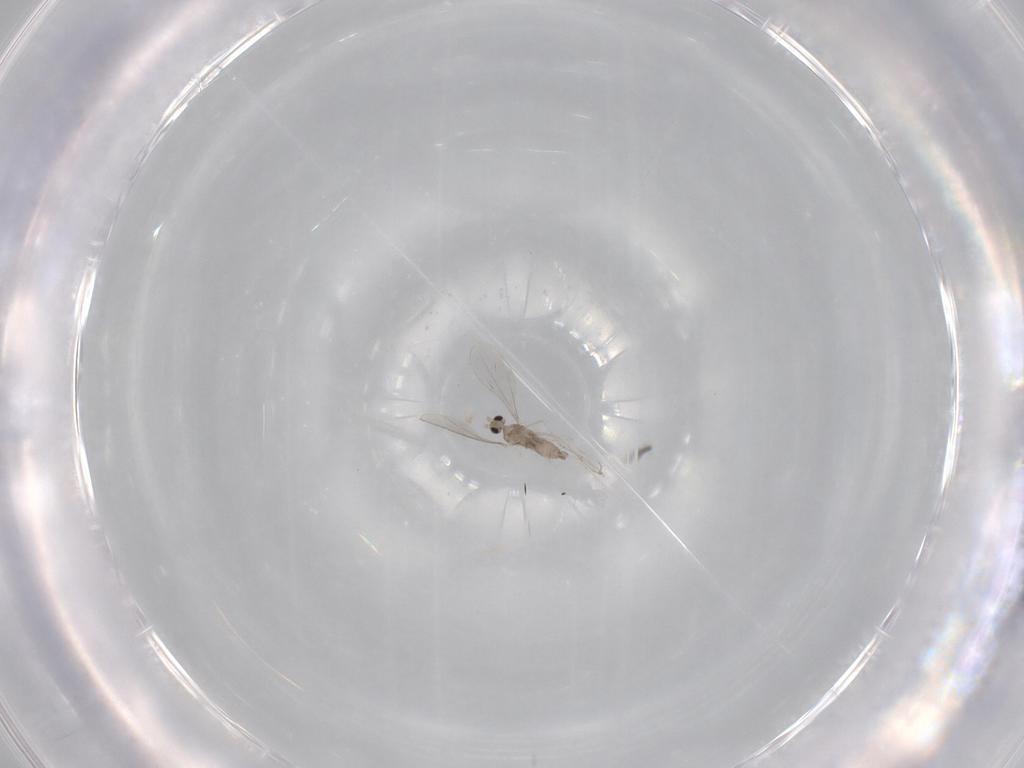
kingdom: Animalia
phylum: Arthropoda
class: Insecta
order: Diptera
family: Cecidomyiidae
